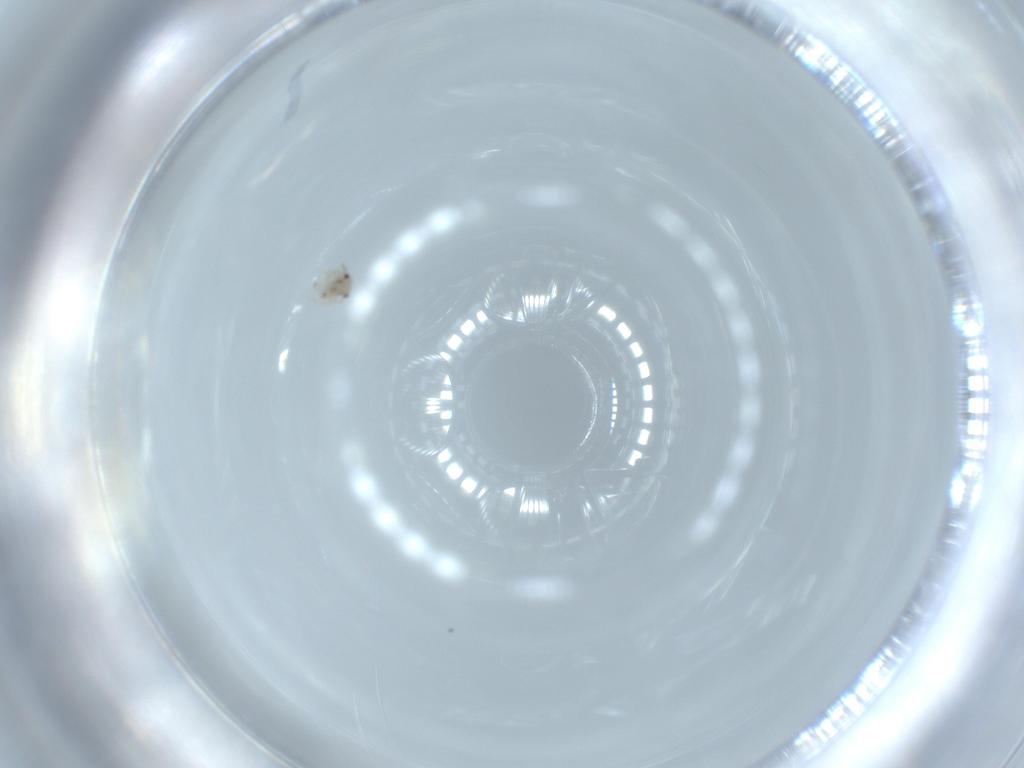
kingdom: Animalia
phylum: Arthropoda
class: Insecta
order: Psocodea
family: Lepidopsocidae
